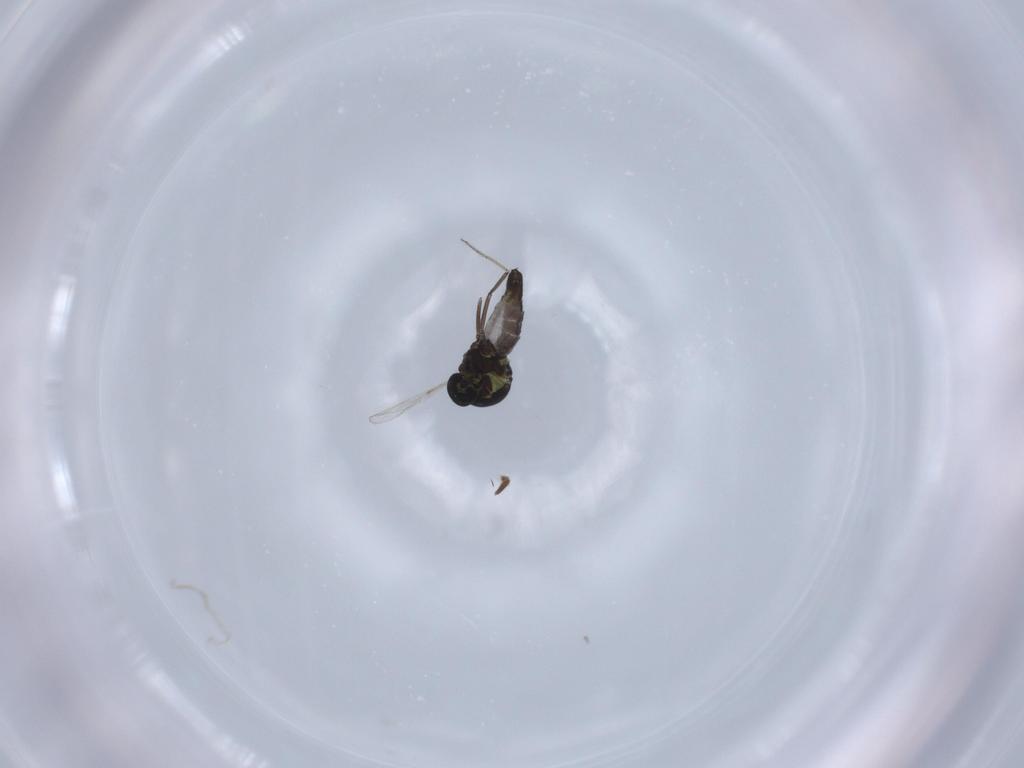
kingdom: Animalia
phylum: Arthropoda
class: Insecta
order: Diptera
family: Ceratopogonidae
